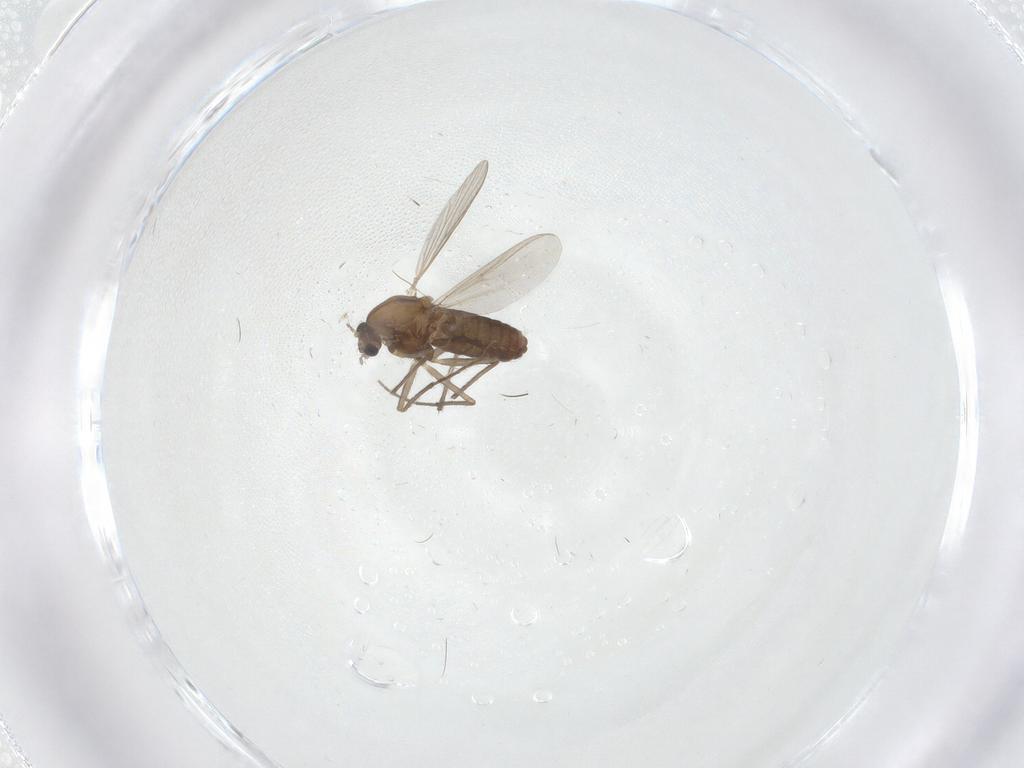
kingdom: Animalia
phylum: Arthropoda
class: Insecta
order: Diptera
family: Chironomidae
